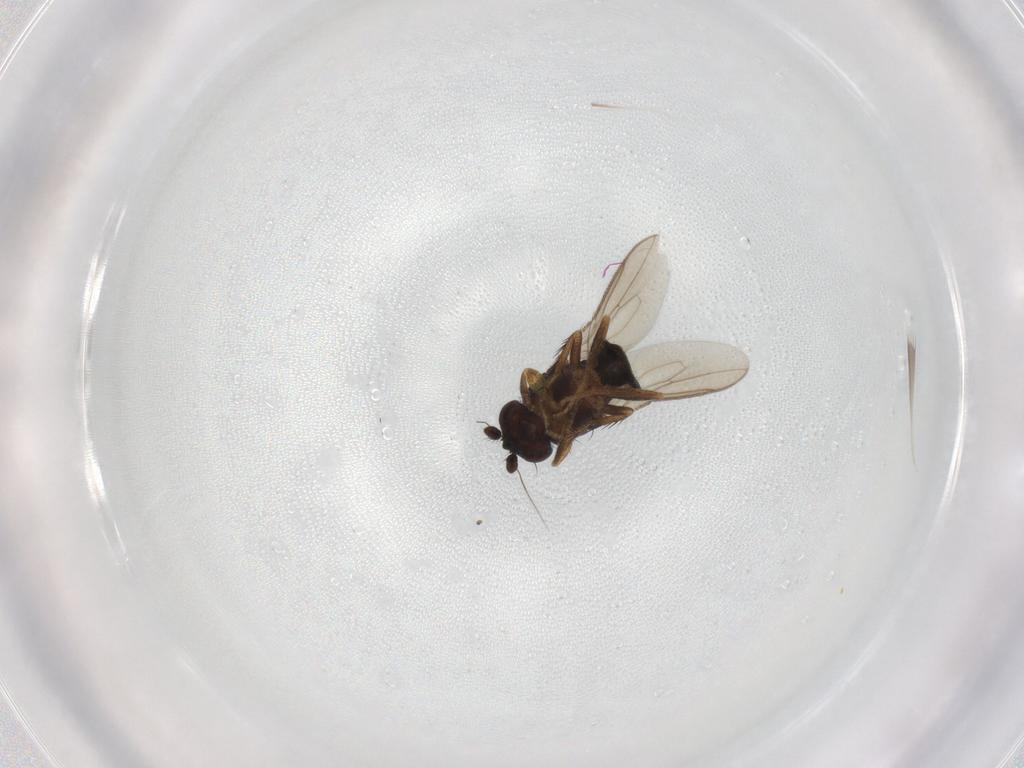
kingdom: Animalia
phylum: Arthropoda
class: Insecta
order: Diptera
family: Sphaeroceridae
